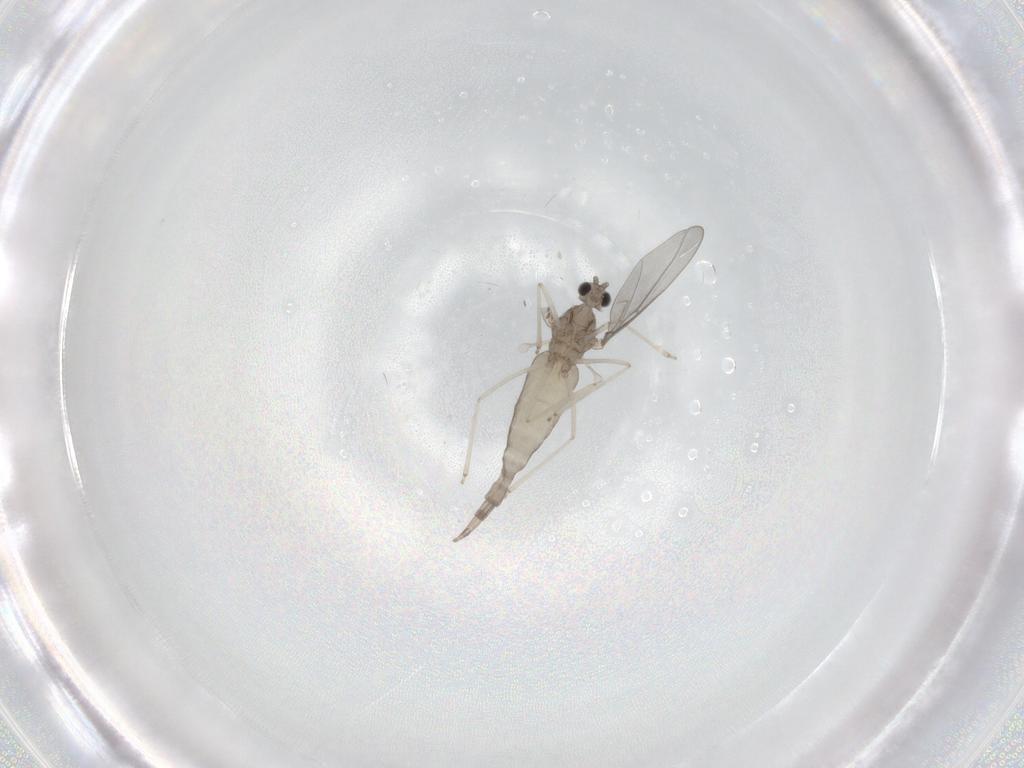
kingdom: Animalia
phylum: Arthropoda
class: Insecta
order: Diptera
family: Cecidomyiidae
